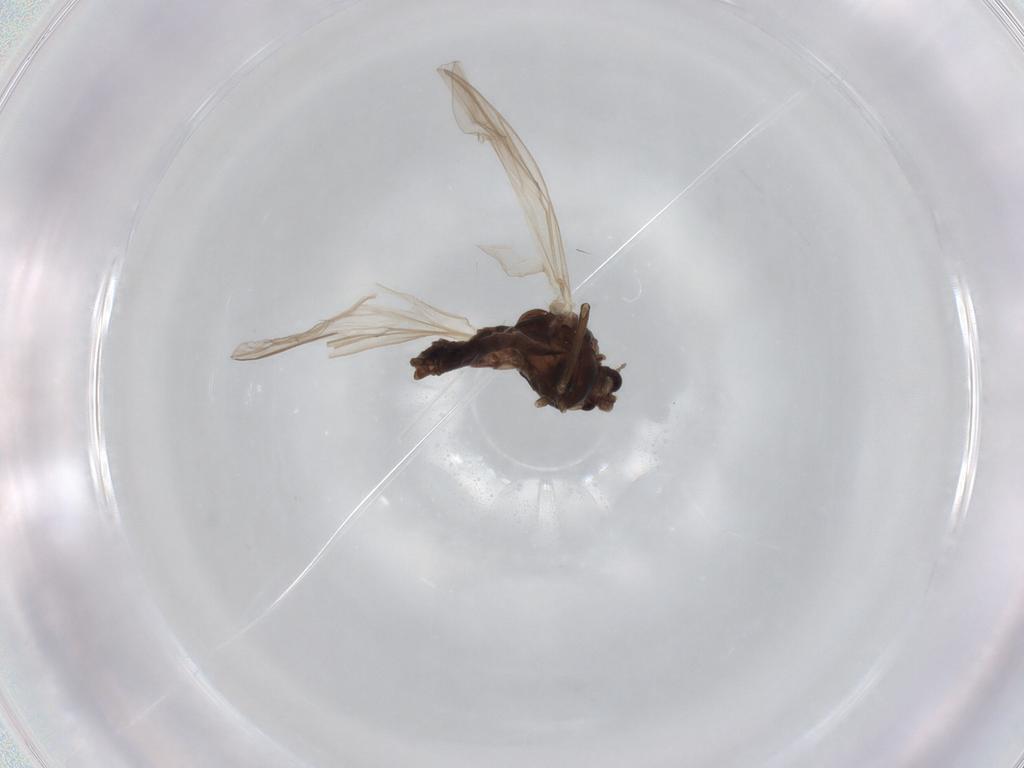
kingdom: Animalia
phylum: Arthropoda
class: Insecta
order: Diptera
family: Chironomidae
